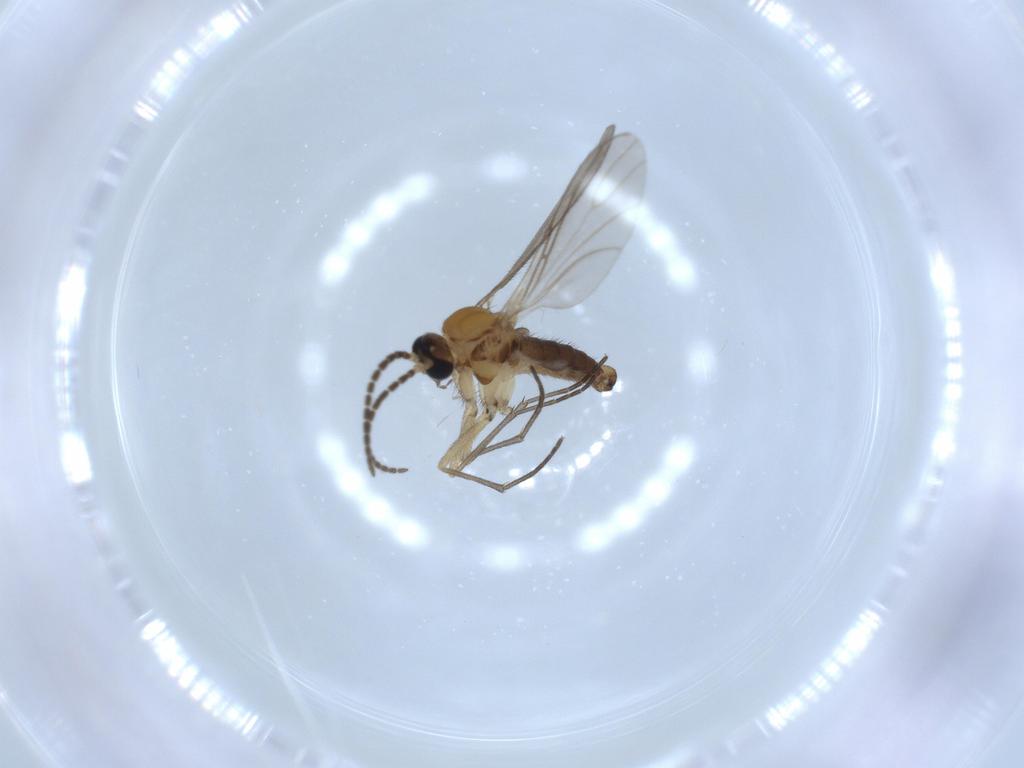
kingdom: Animalia
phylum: Arthropoda
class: Insecta
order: Diptera
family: Sciaridae
